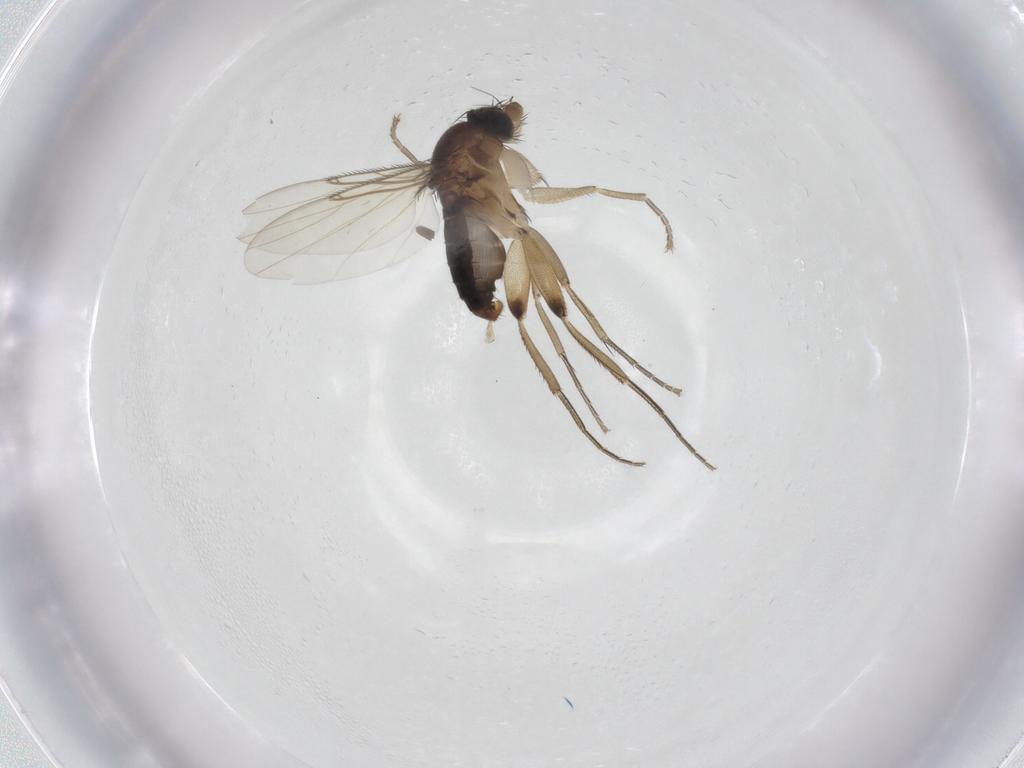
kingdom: Animalia
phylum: Arthropoda
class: Insecta
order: Diptera
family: Phoridae
